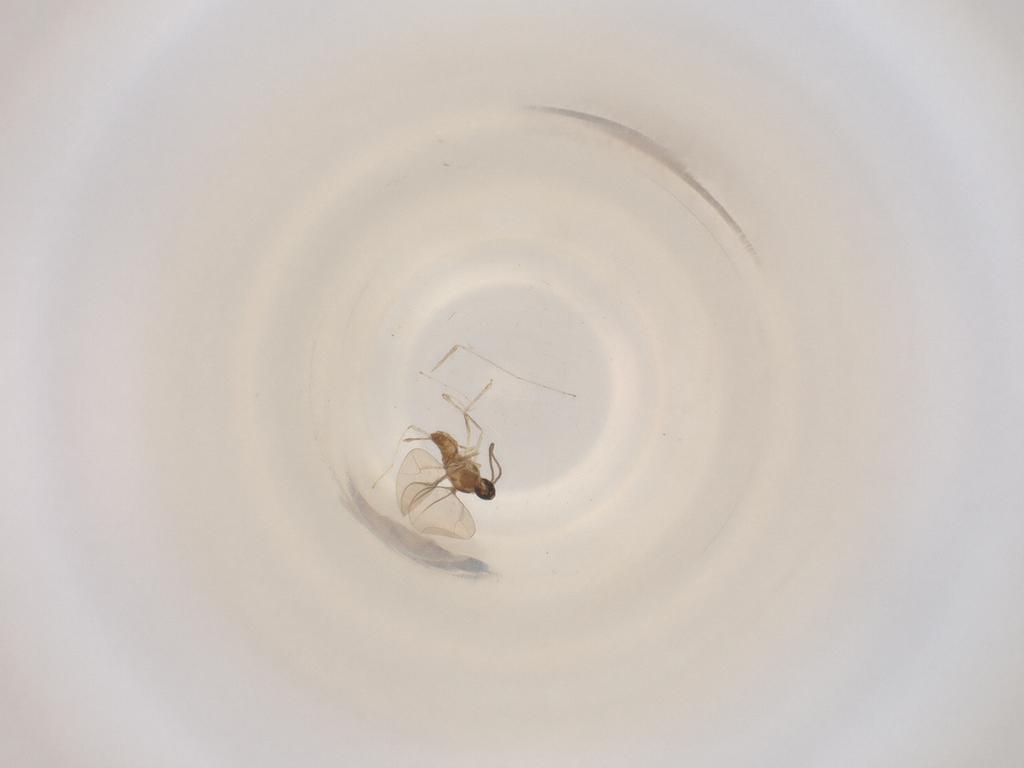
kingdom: Animalia
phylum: Arthropoda
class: Insecta
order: Diptera
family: Cecidomyiidae
